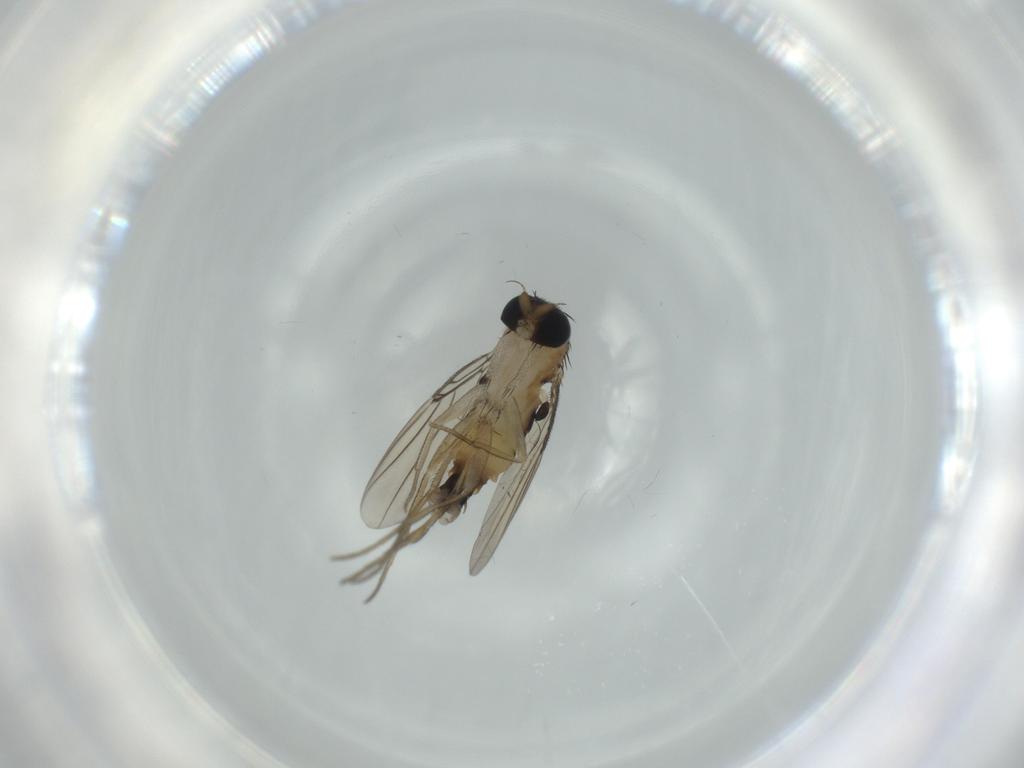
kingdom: Animalia
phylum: Arthropoda
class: Insecta
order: Diptera
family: Phoridae
